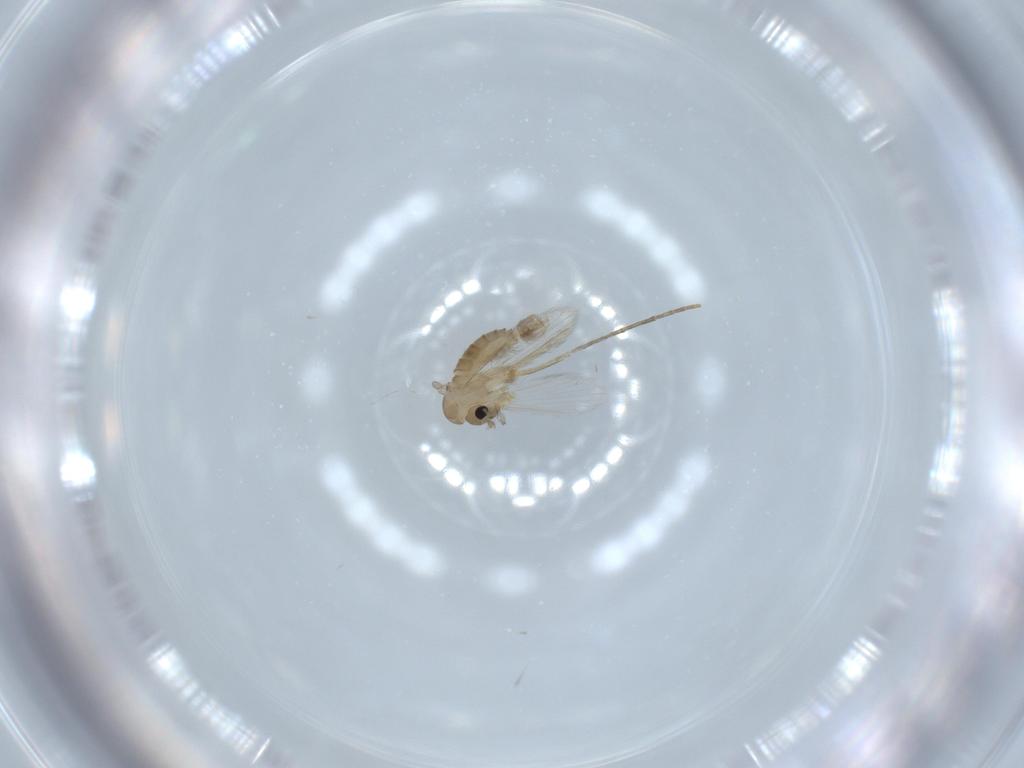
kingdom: Animalia
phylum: Arthropoda
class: Insecta
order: Diptera
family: Psychodidae
